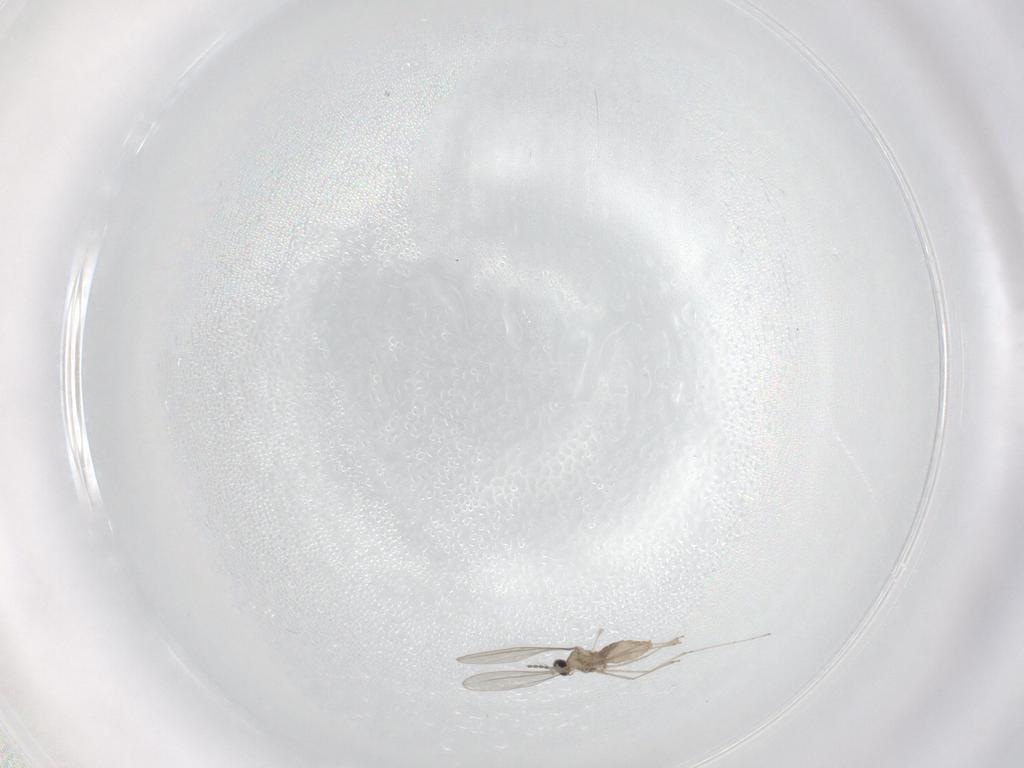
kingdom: Animalia
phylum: Arthropoda
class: Insecta
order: Diptera
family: Cecidomyiidae
